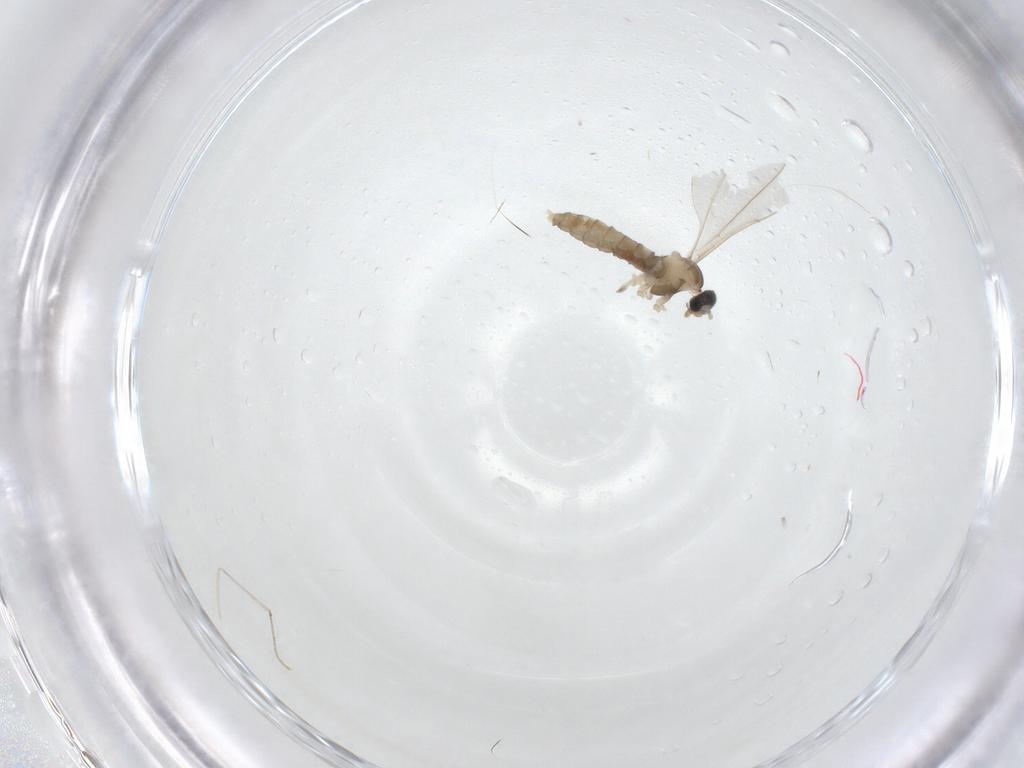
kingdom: Animalia
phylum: Arthropoda
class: Insecta
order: Diptera
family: Cecidomyiidae
